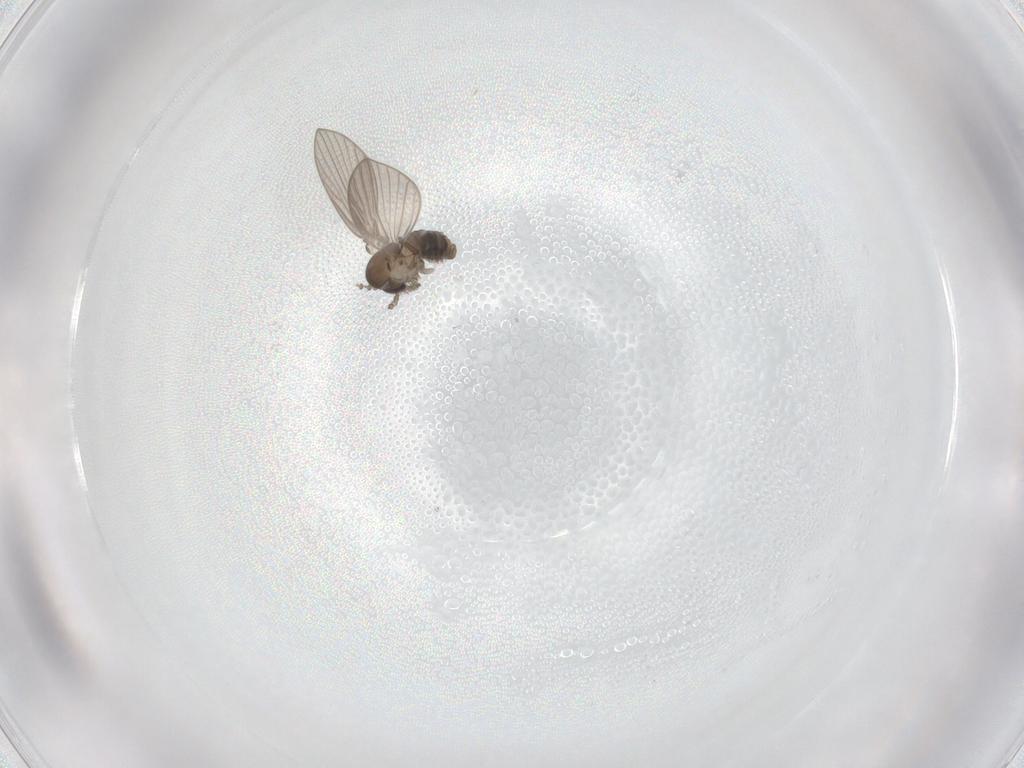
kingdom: Animalia
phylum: Arthropoda
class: Insecta
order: Diptera
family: Psychodidae
